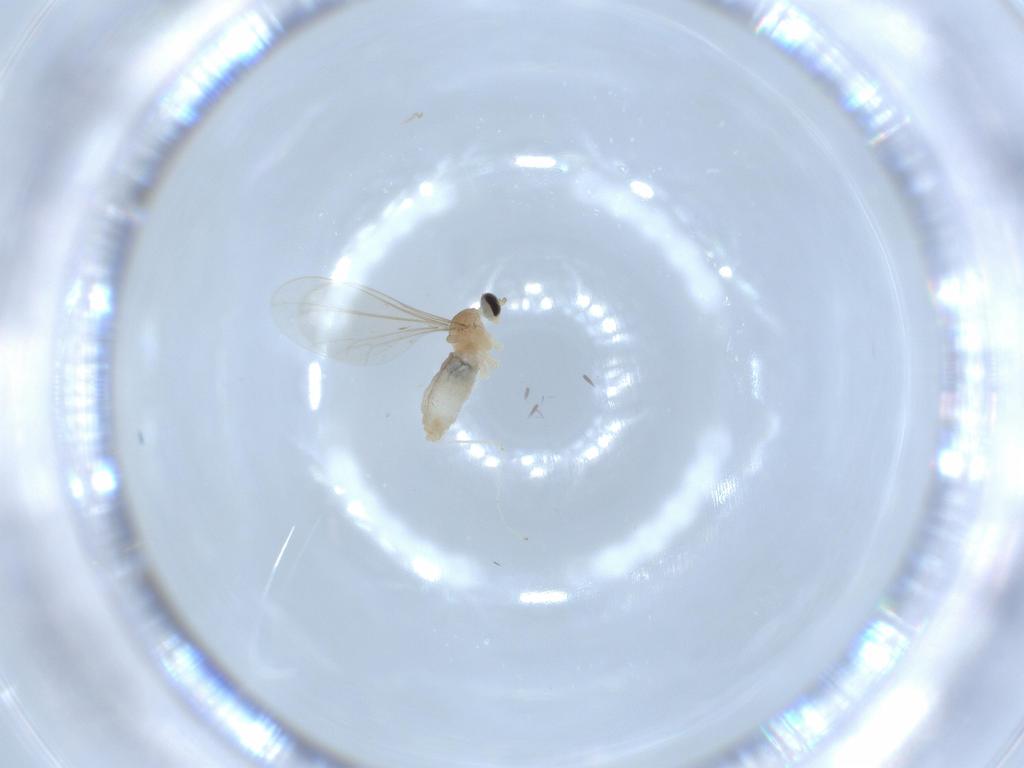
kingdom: Animalia
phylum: Arthropoda
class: Insecta
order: Diptera
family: Cecidomyiidae
